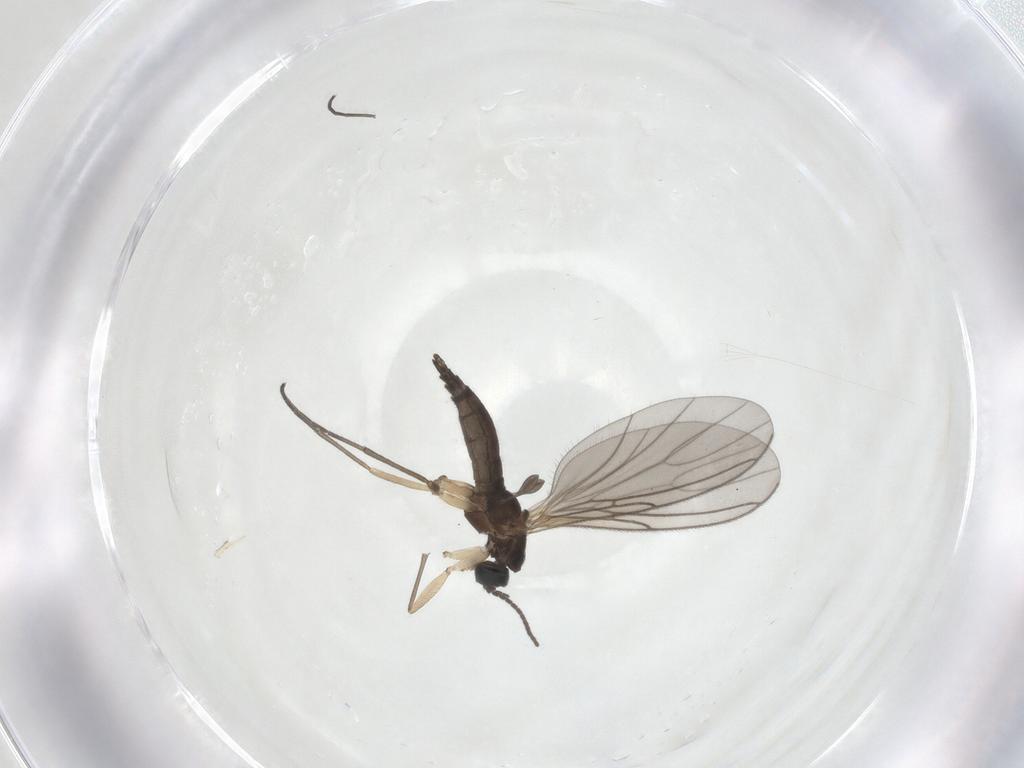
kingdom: Animalia
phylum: Arthropoda
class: Insecta
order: Diptera
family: Sciaridae
